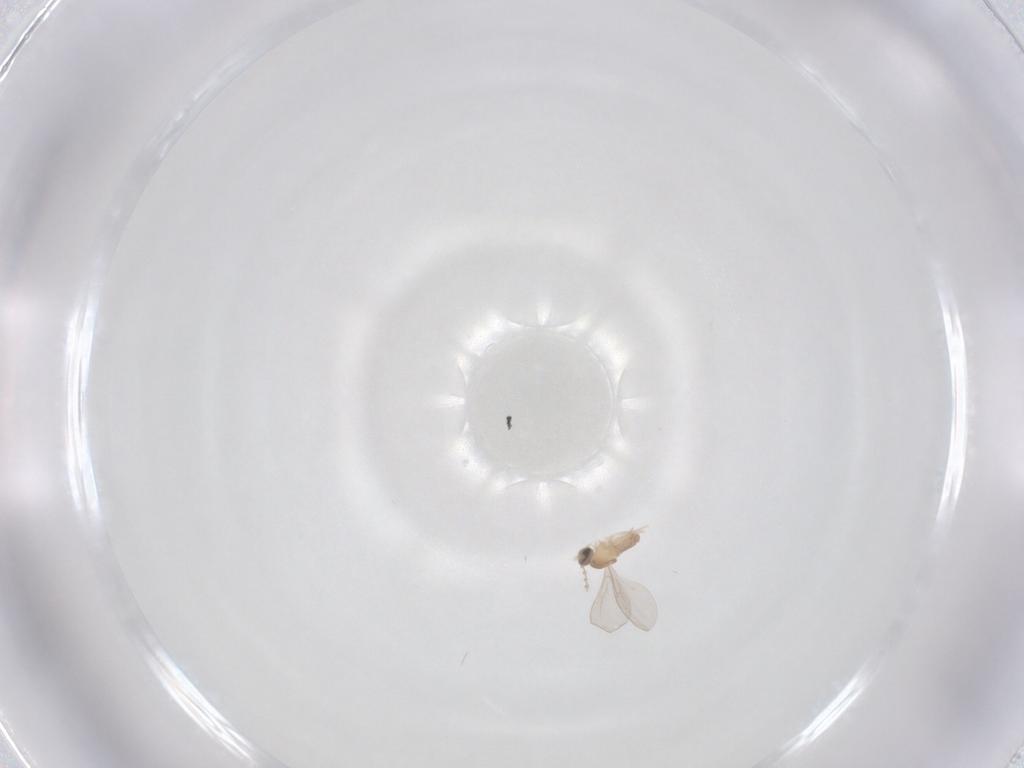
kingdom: Animalia
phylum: Arthropoda
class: Insecta
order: Diptera
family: Cecidomyiidae
